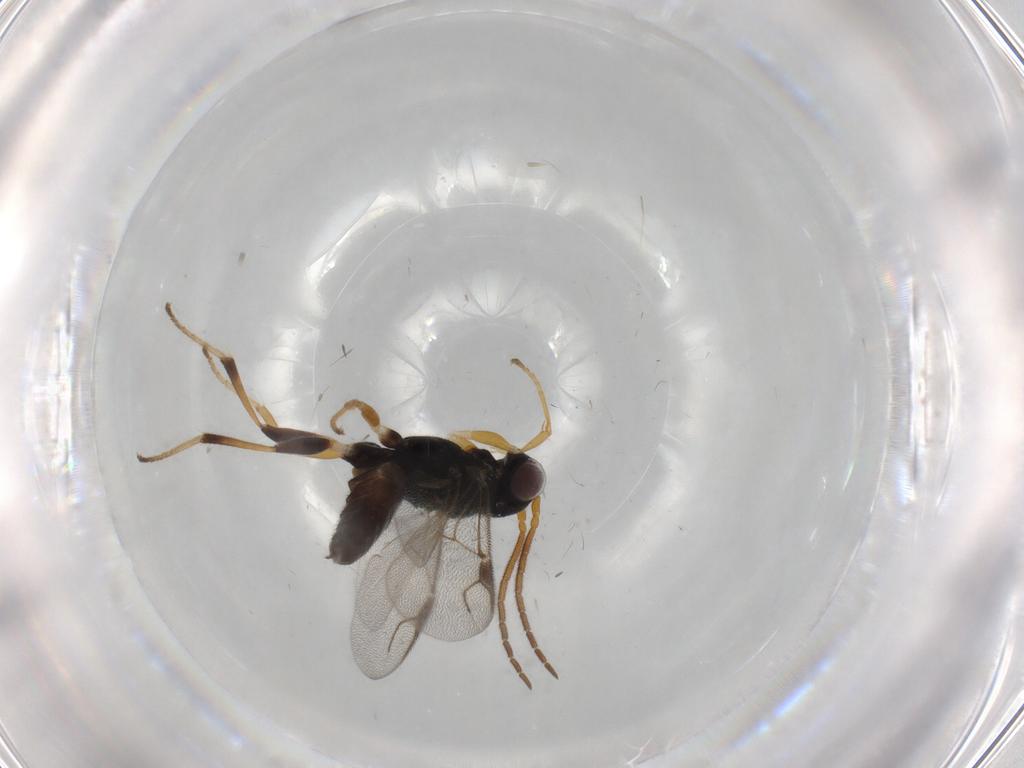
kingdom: Animalia
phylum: Arthropoda
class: Insecta
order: Hymenoptera
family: Dryinidae
